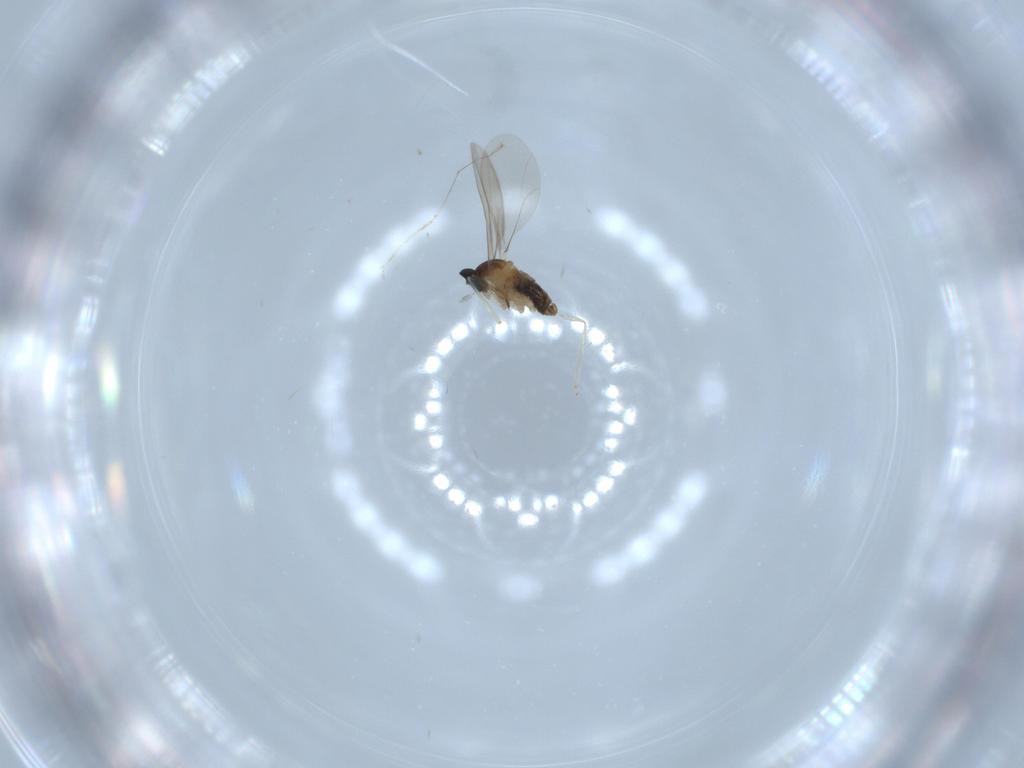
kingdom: Animalia
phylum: Arthropoda
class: Insecta
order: Diptera
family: Cecidomyiidae
